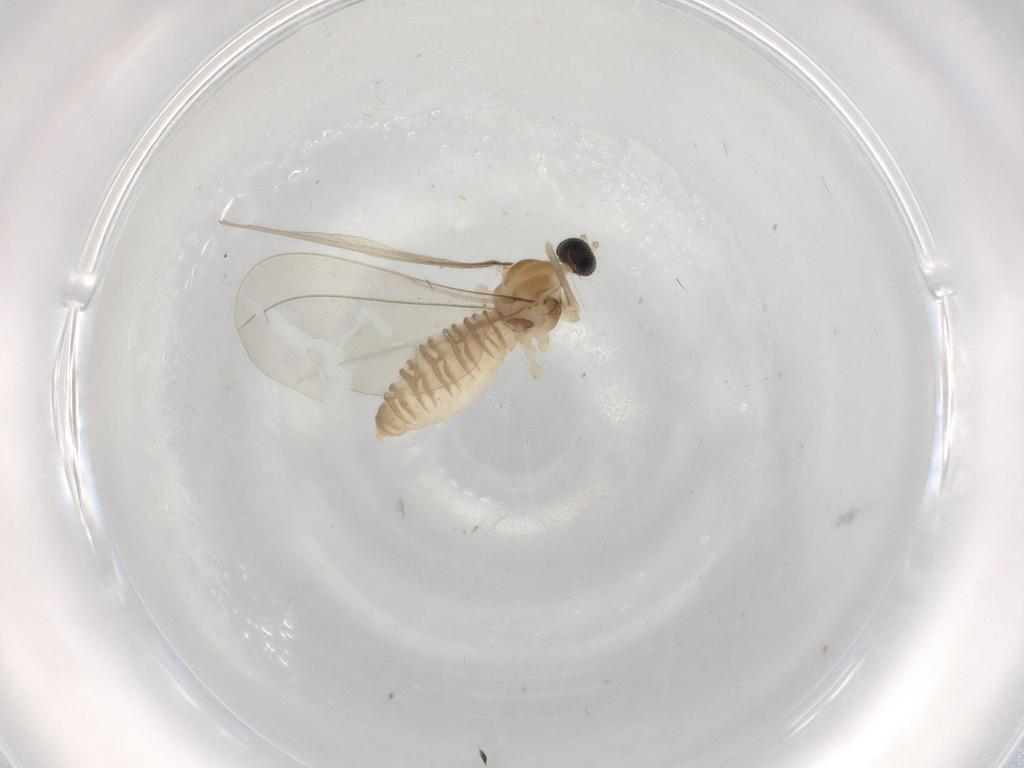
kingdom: Animalia
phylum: Arthropoda
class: Insecta
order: Diptera
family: Cecidomyiidae
